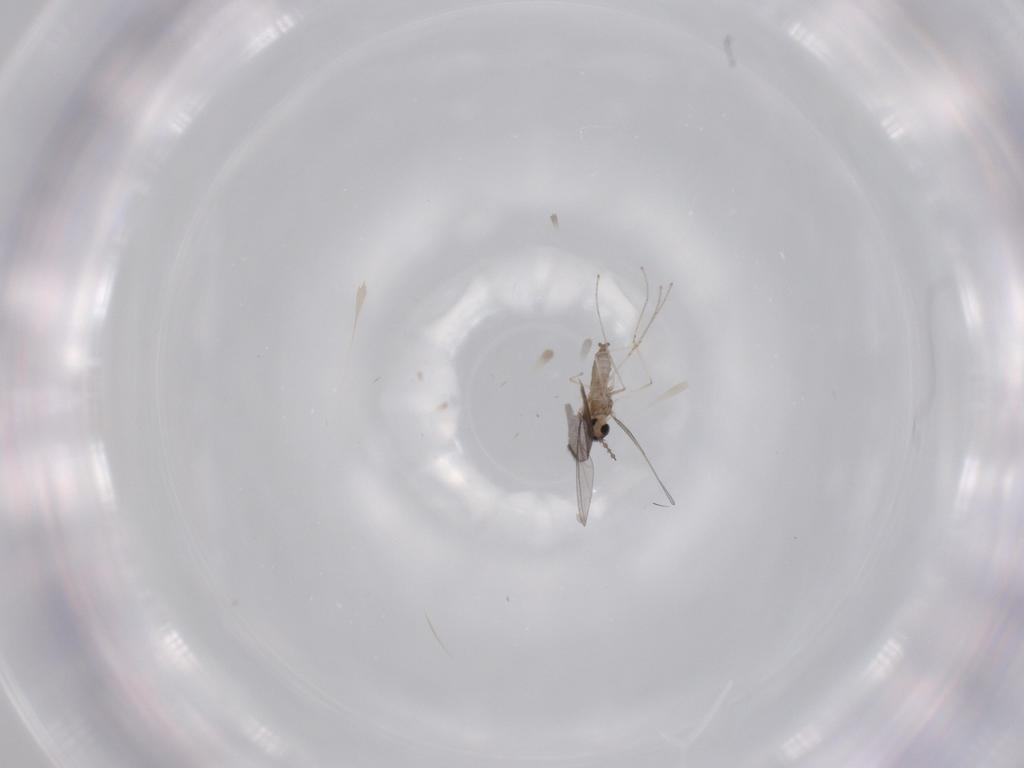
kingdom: Animalia
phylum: Arthropoda
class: Insecta
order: Diptera
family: Cecidomyiidae
